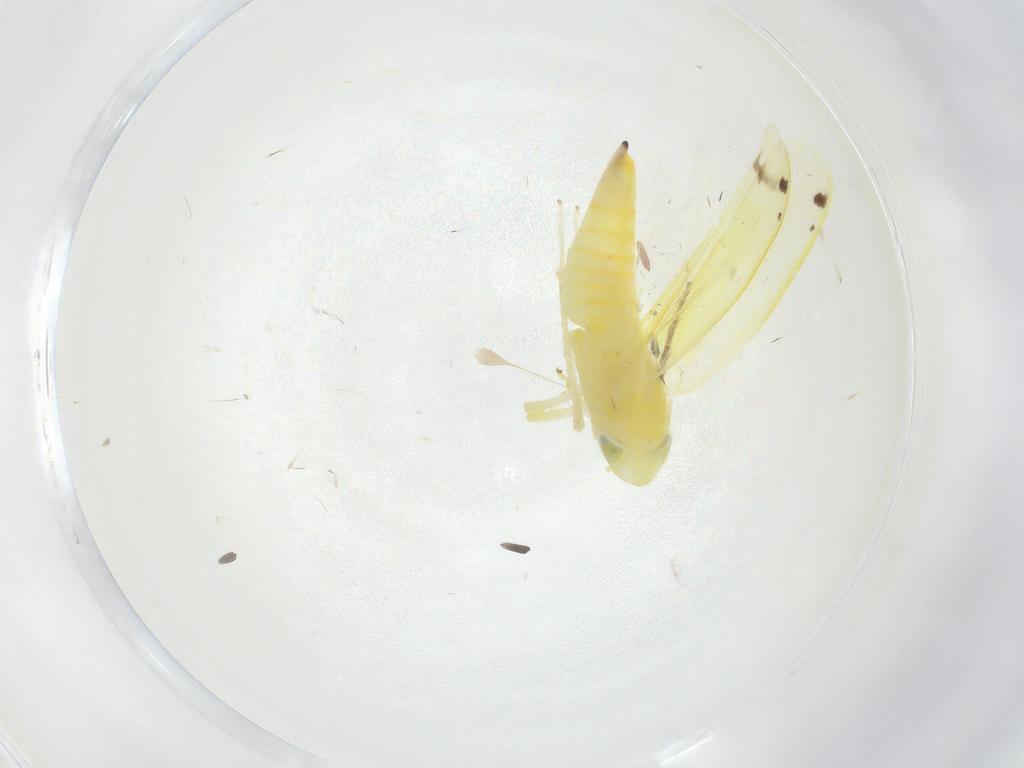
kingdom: Animalia
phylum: Arthropoda
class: Insecta
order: Hemiptera
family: Cicadellidae
